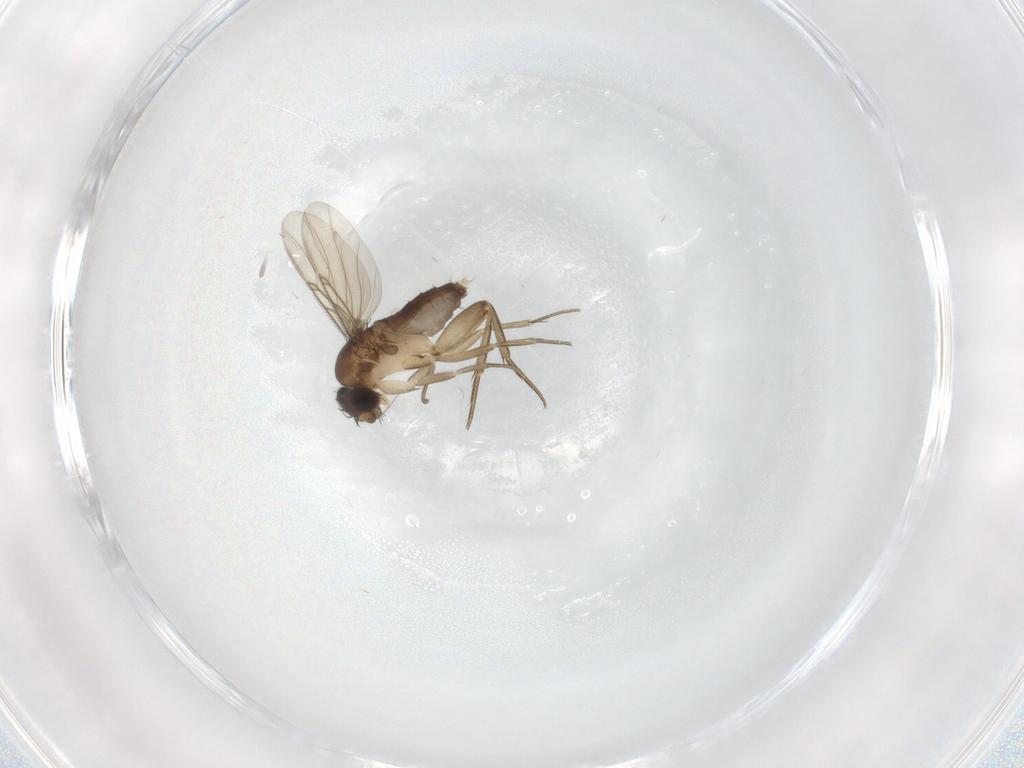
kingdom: Animalia
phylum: Arthropoda
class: Insecta
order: Diptera
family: Phoridae
